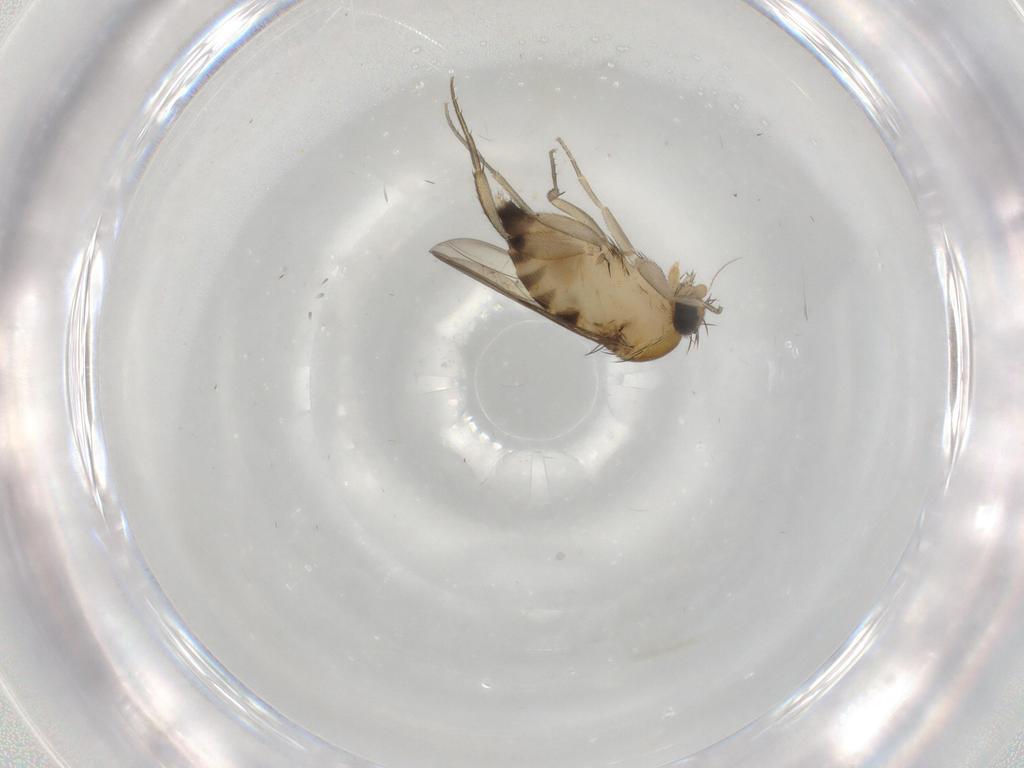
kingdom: Animalia
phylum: Arthropoda
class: Insecta
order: Diptera
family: Phoridae
